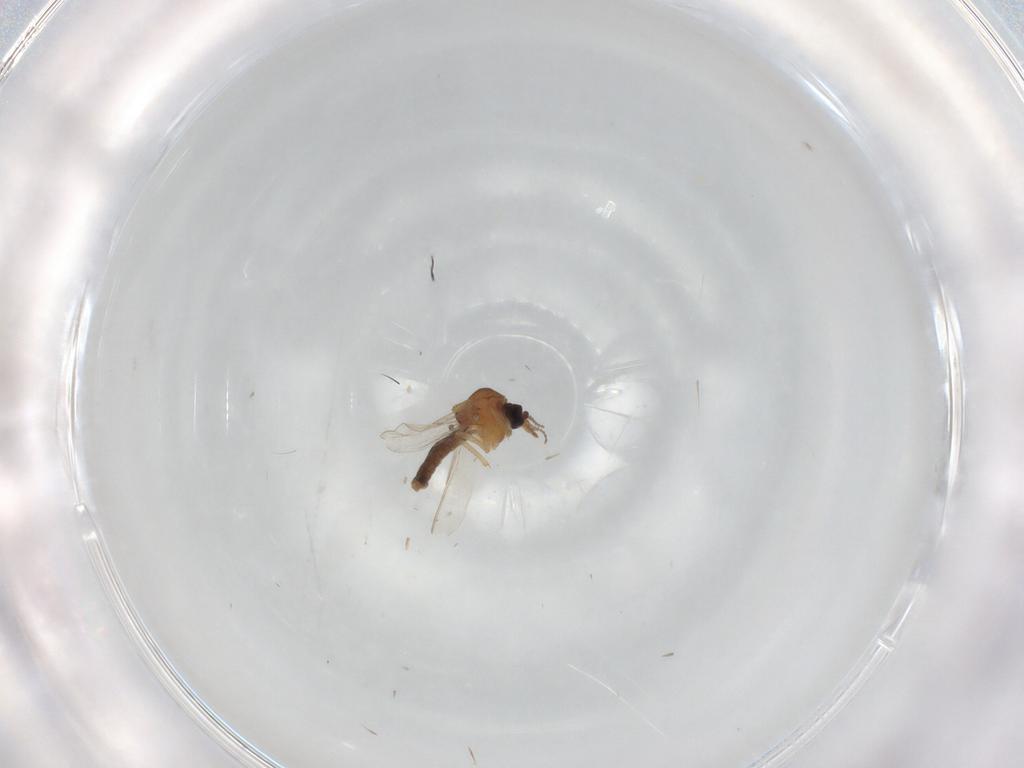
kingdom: Animalia
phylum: Arthropoda
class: Insecta
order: Diptera
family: Ceratopogonidae
